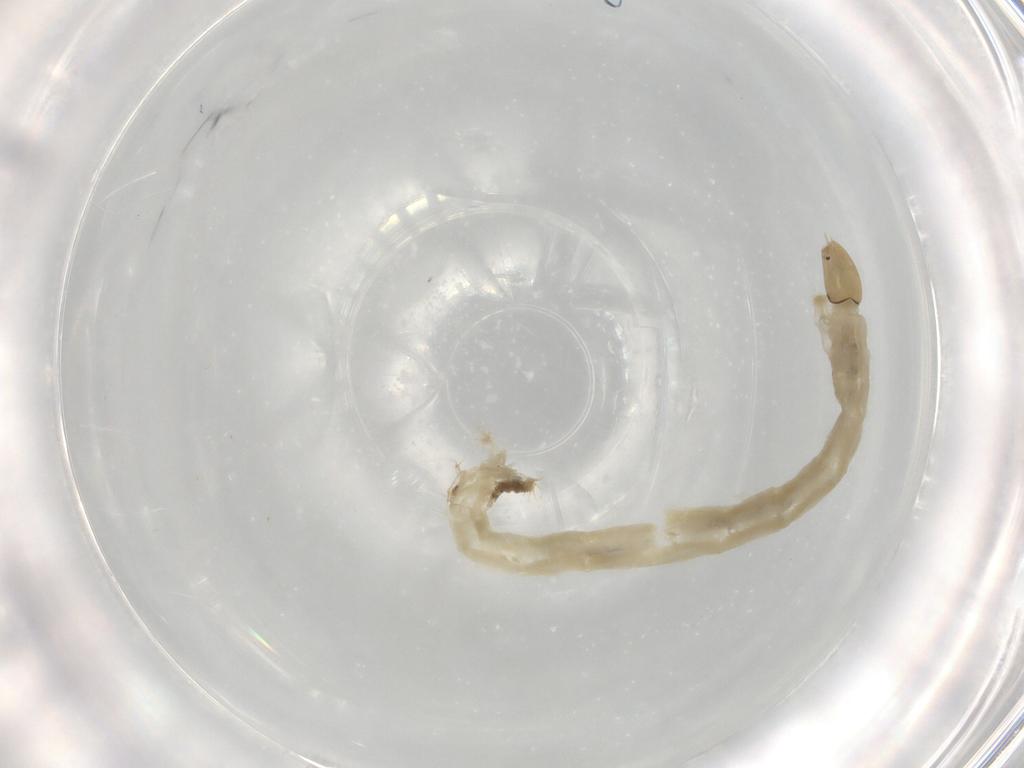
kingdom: Animalia
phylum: Arthropoda
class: Insecta
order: Diptera
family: Chironomidae
